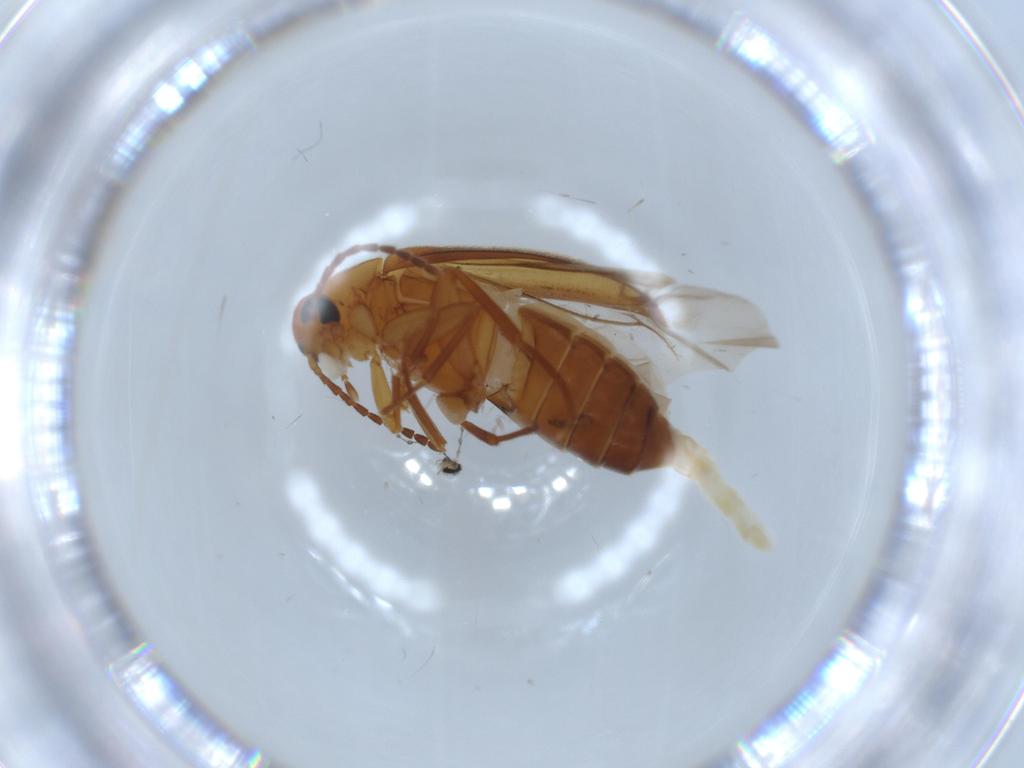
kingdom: Animalia
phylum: Arthropoda
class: Insecta
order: Coleoptera
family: Scraptiidae
